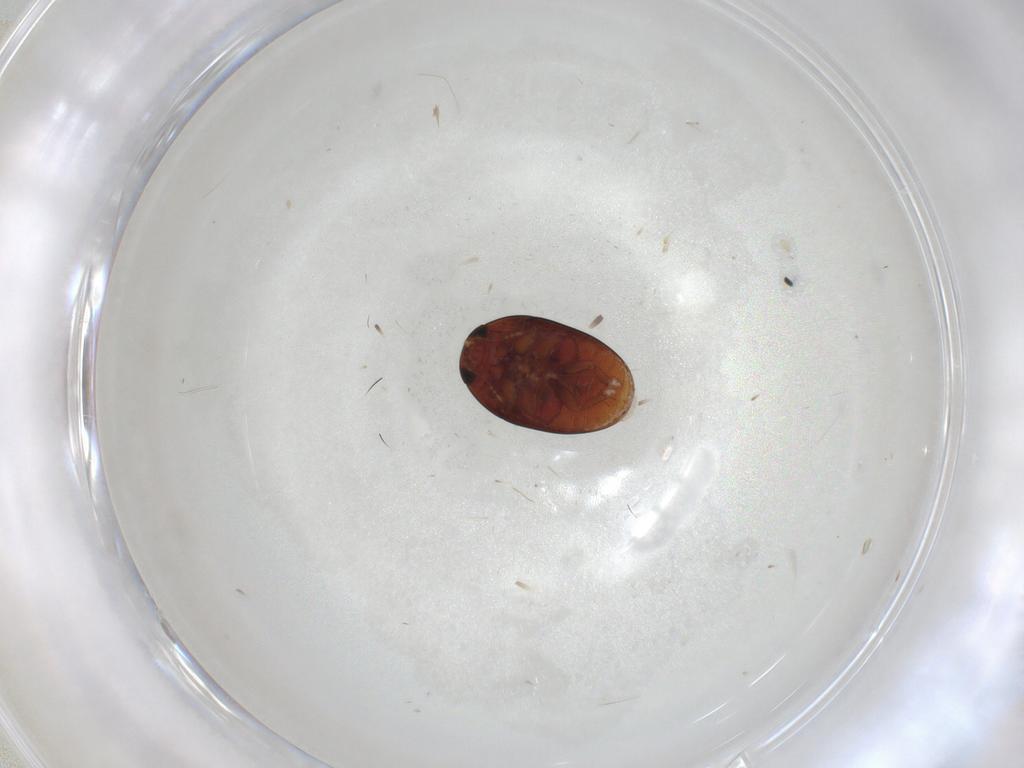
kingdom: Animalia
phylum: Arthropoda
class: Insecta
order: Coleoptera
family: Phalacridae
